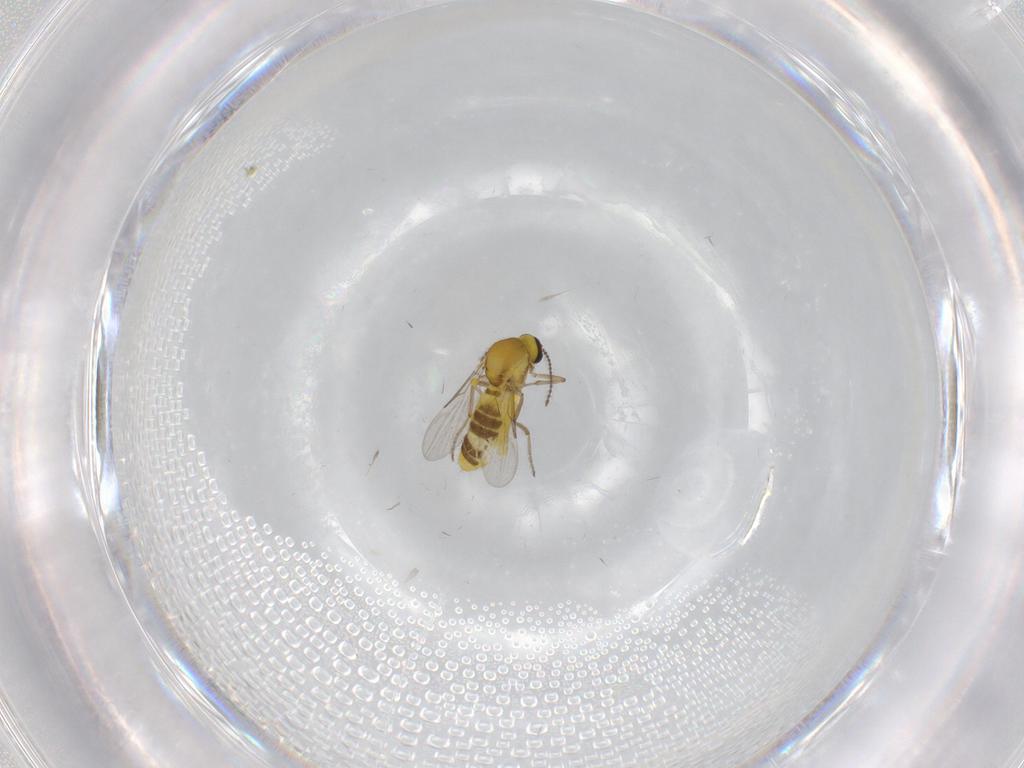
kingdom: Animalia
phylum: Arthropoda
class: Insecta
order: Diptera
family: Ceratopogonidae
